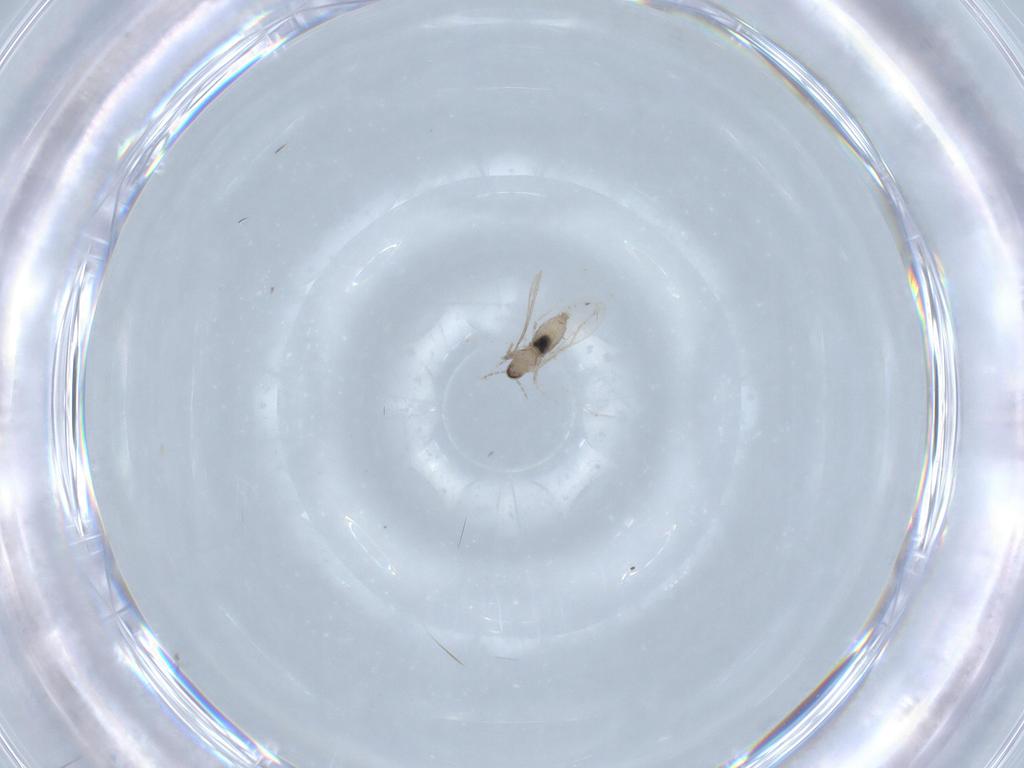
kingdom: Animalia
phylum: Arthropoda
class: Insecta
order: Diptera
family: Cecidomyiidae
